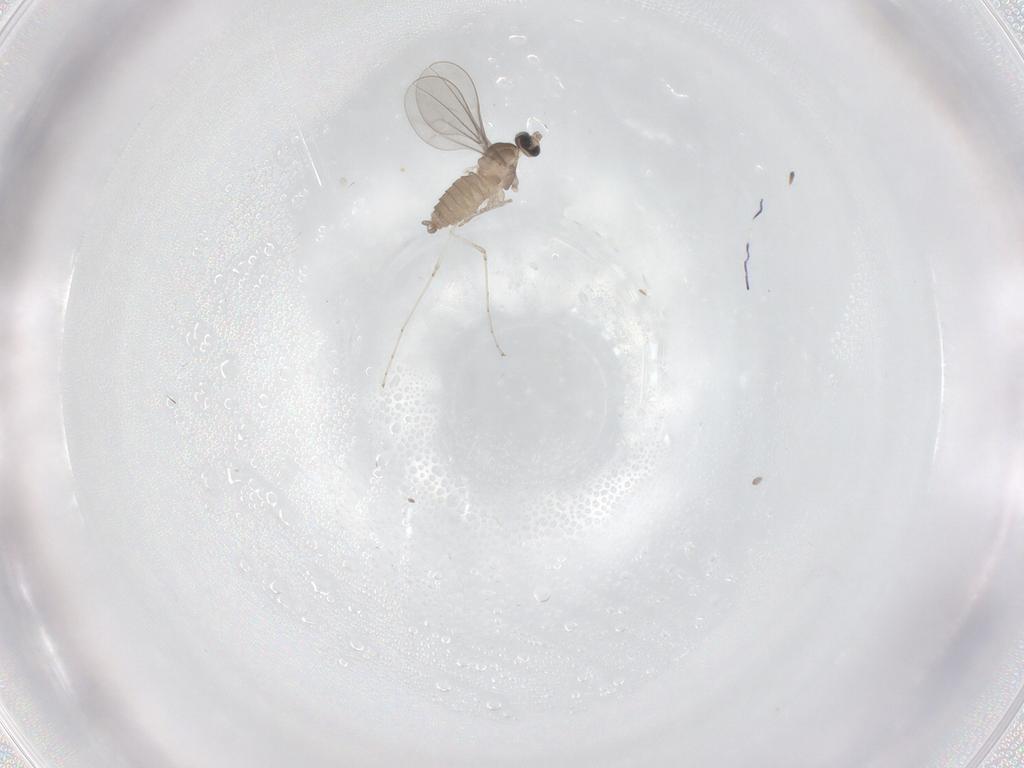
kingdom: Animalia
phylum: Arthropoda
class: Insecta
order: Diptera
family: Cecidomyiidae
